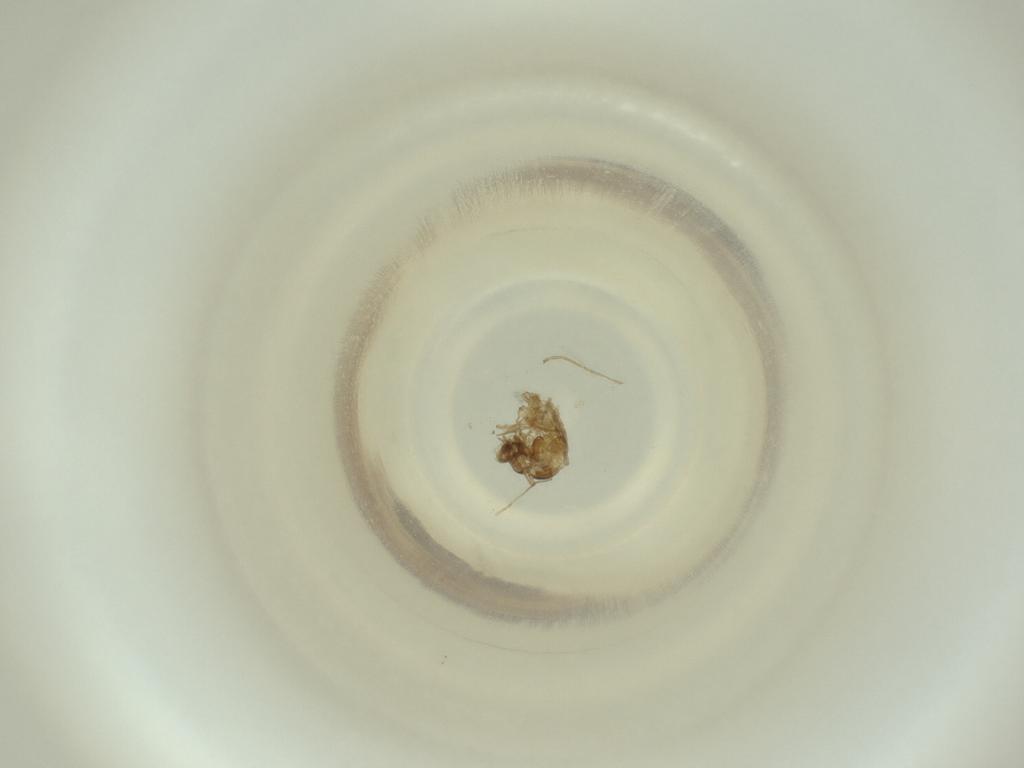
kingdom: Animalia
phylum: Arthropoda
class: Insecta
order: Diptera
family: Cecidomyiidae
